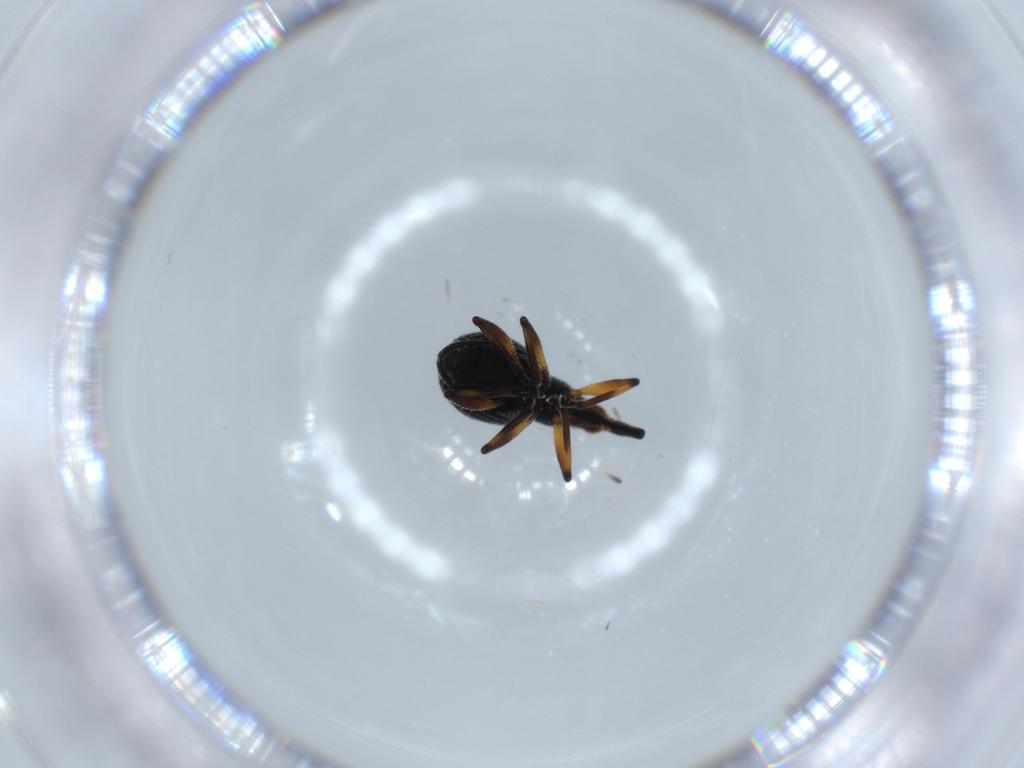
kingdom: Animalia
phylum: Arthropoda
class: Insecta
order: Coleoptera
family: Brentidae
